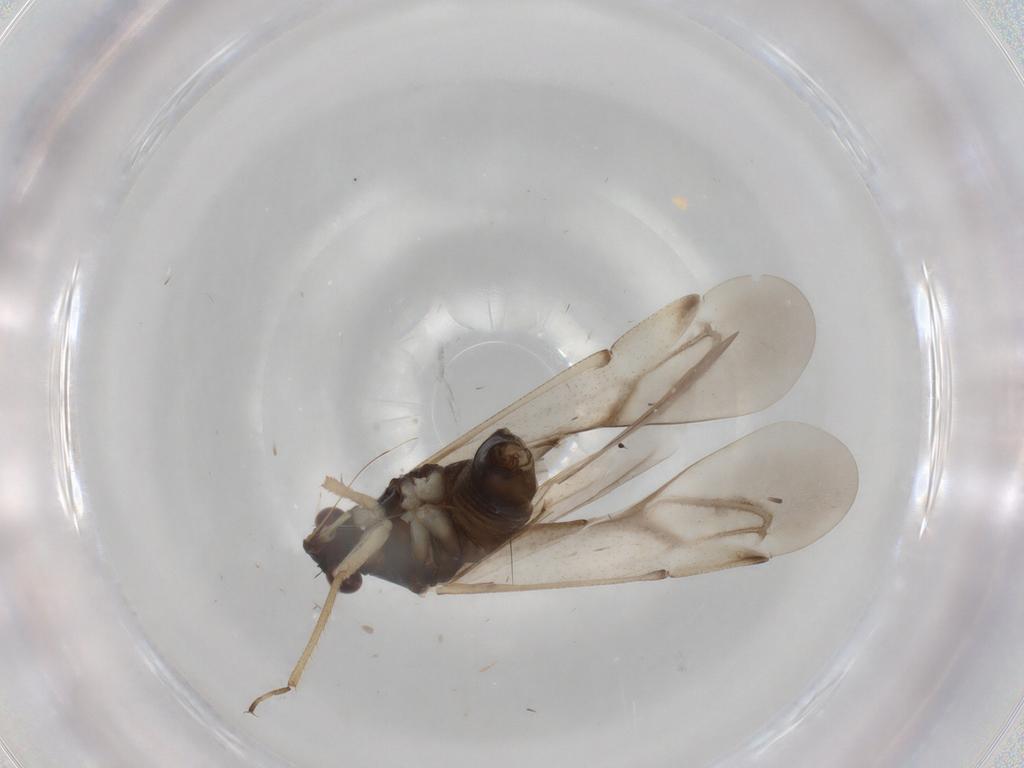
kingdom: Animalia
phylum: Arthropoda
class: Insecta
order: Hemiptera
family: Miridae
